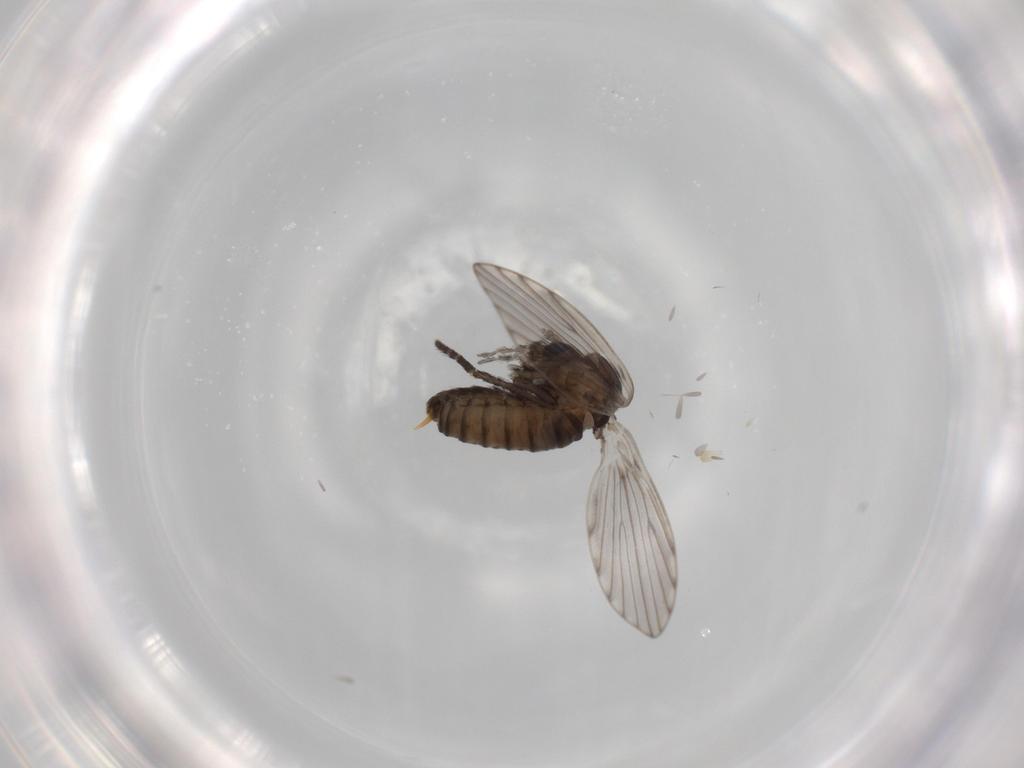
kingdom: Animalia
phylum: Arthropoda
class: Insecta
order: Diptera
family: Psychodidae
